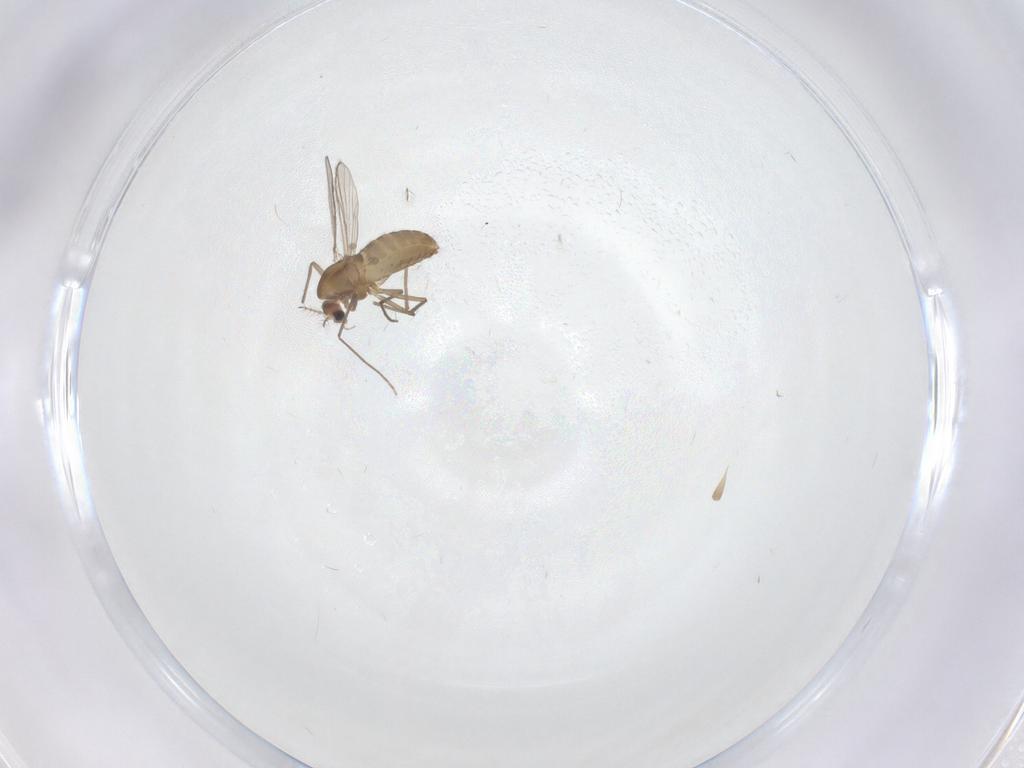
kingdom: Animalia
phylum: Arthropoda
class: Insecta
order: Diptera
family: Chironomidae
